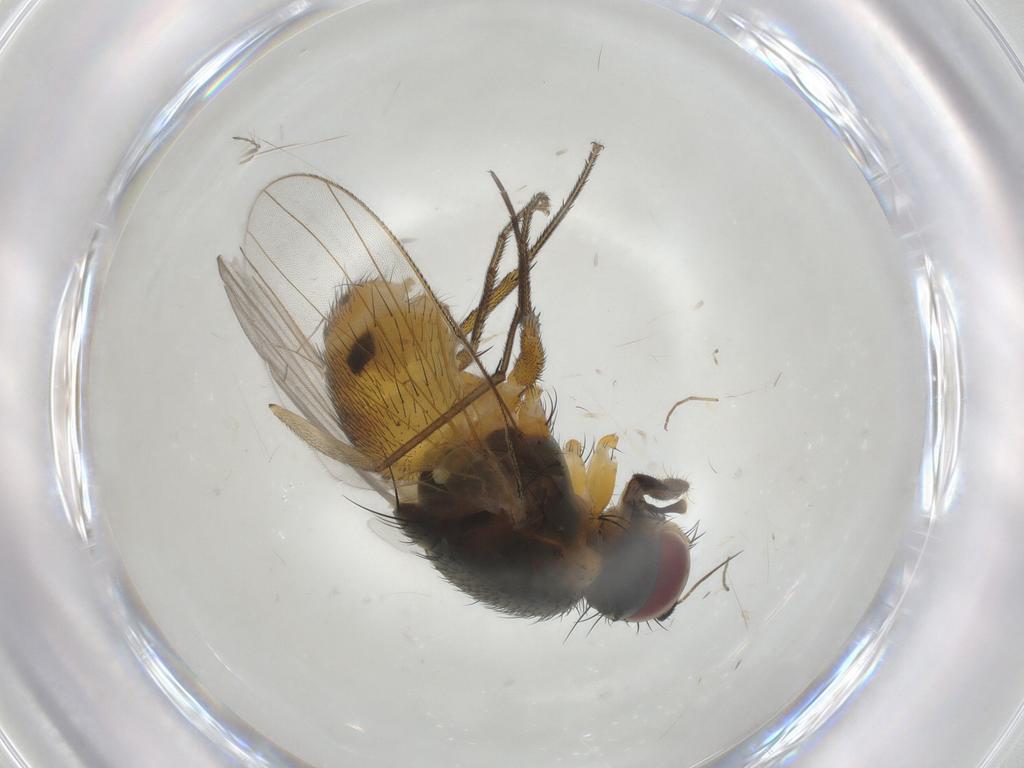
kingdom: Animalia
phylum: Arthropoda
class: Insecta
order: Diptera
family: Muscidae
